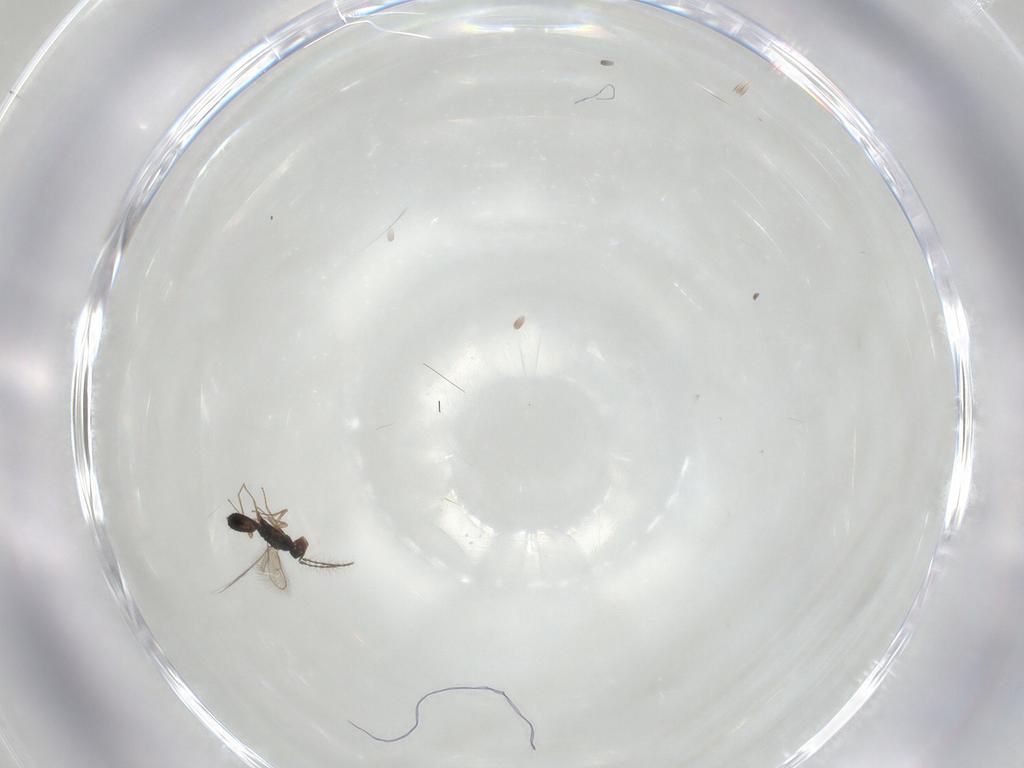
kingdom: Animalia
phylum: Arthropoda
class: Insecta
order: Hymenoptera
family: Pteromalidae
